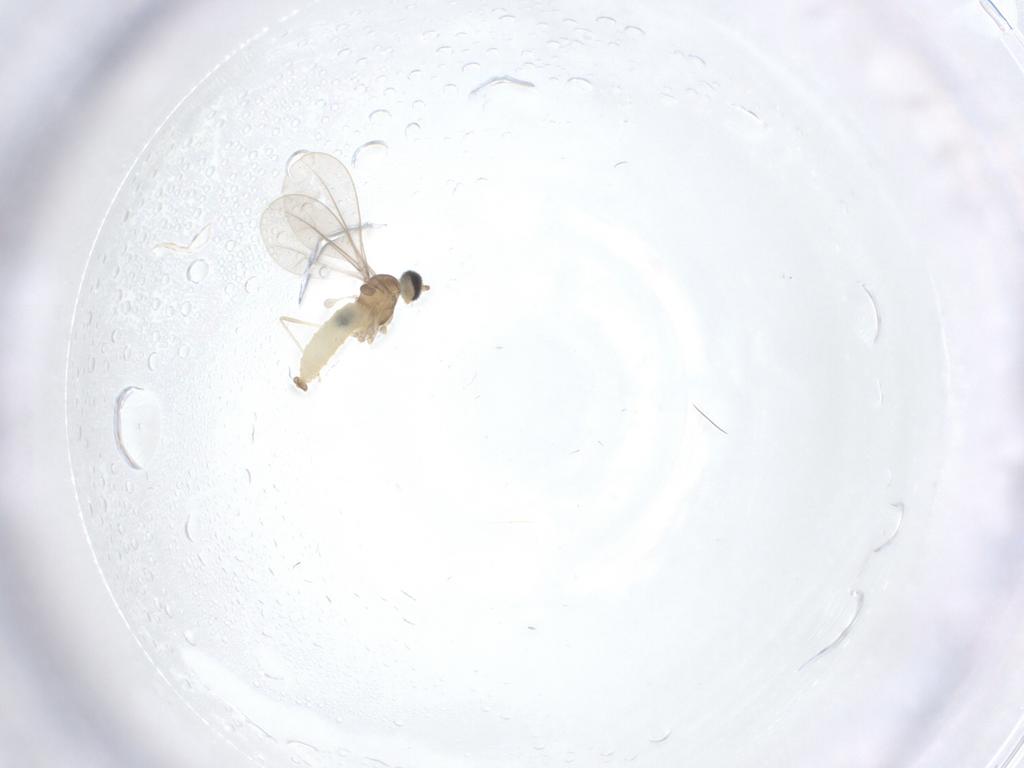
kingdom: Animalia
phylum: Arthropoda
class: Insecta
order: Diptera
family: Cecidomyiidae
